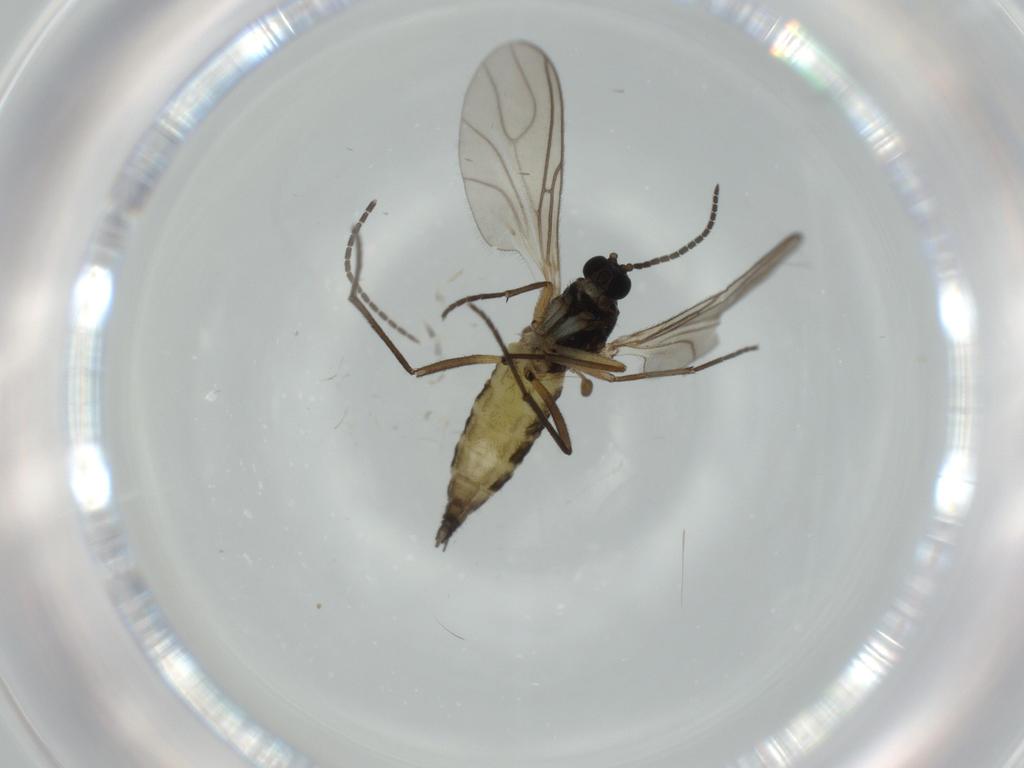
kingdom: Animalia
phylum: Arthropoda
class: Insecta
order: Diptera
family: Sciaridae
